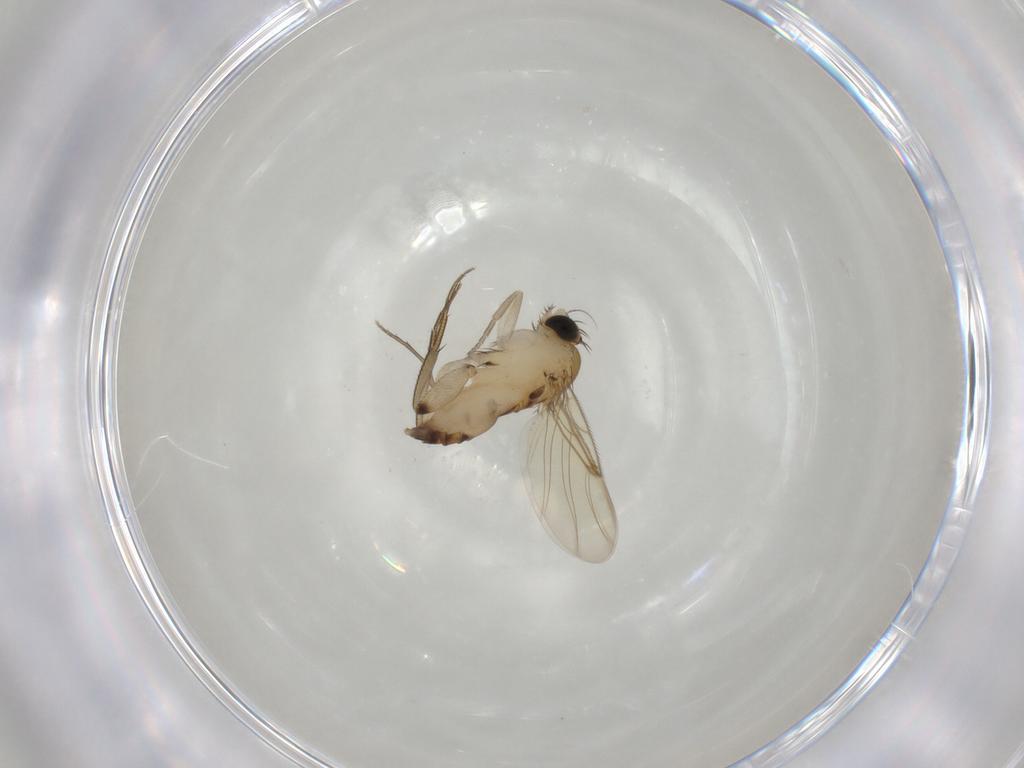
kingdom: Animalia
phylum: Arthropoda
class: Insecta
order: Diptera
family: Phoridae
